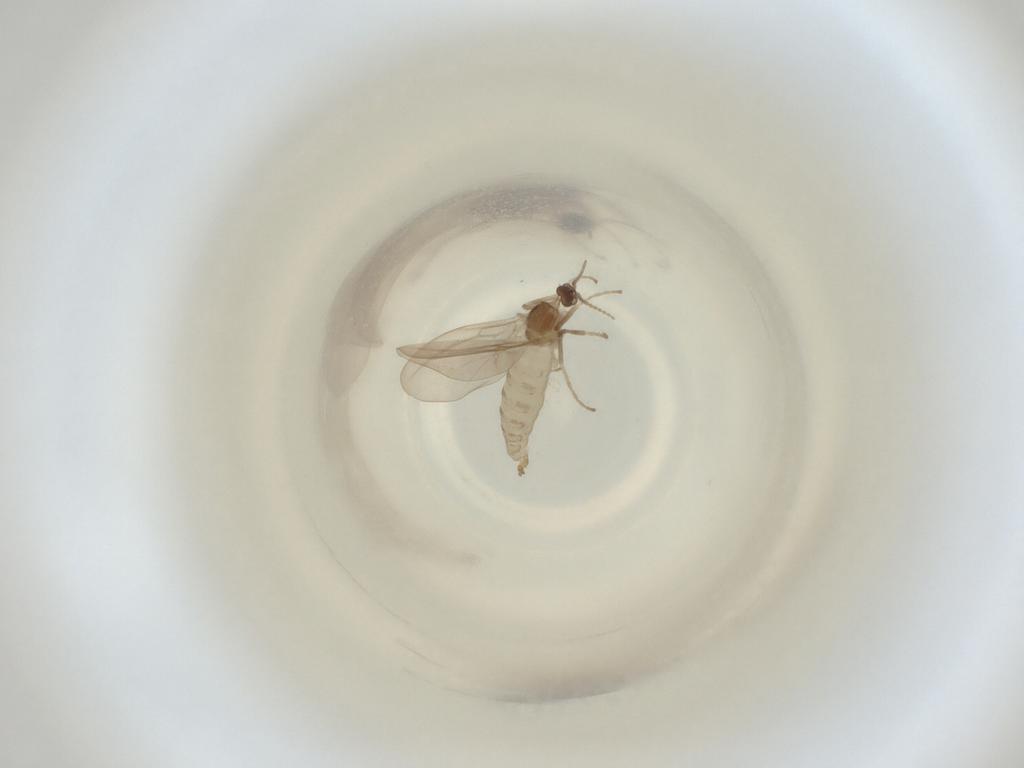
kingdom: Animalia
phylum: Arthropoda
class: Insecta
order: Diptera
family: Cecidomyiidae
